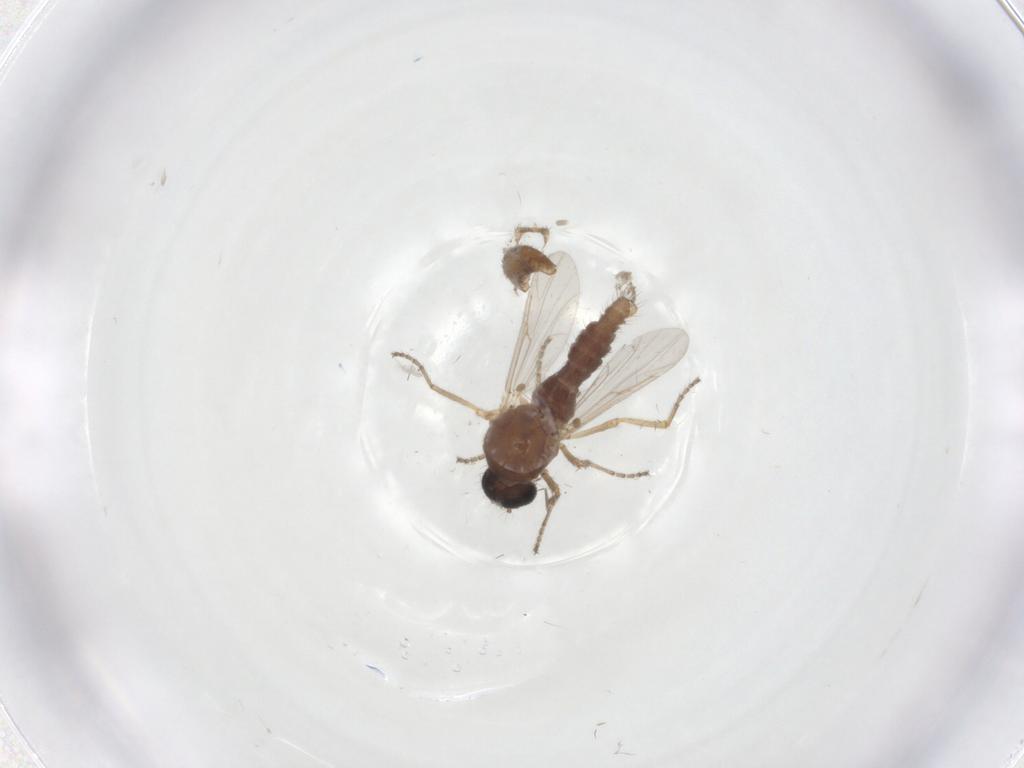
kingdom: Animalia
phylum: Arthropoda
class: Insecta
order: Diptera
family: Ceratopogonidae
